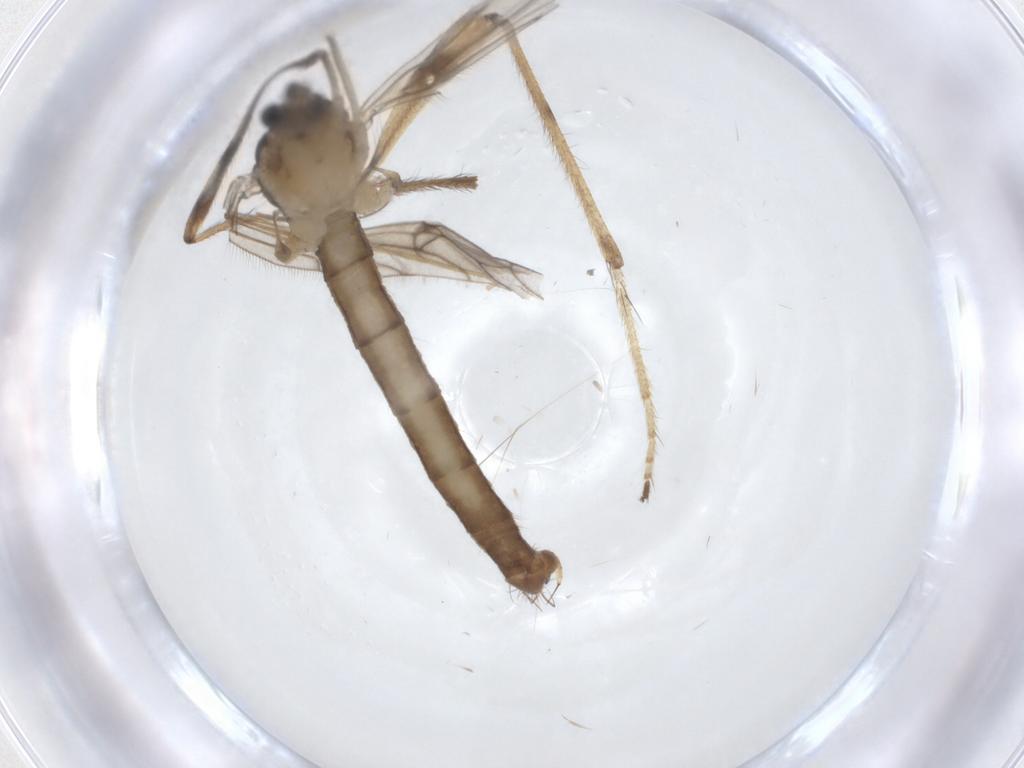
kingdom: Animalia
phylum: Arthropoda
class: Insecta
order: Diptera
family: Limoniidae
